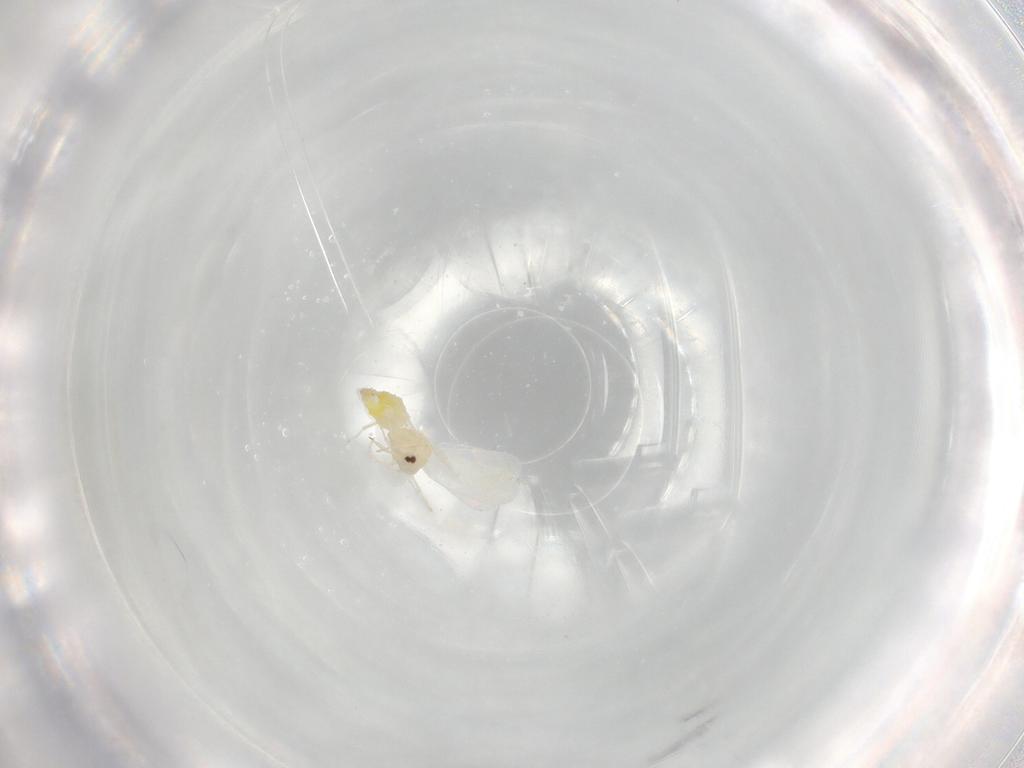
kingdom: Animalia
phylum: Arthropoda
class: Insecta
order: Hemiptera
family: Aleyrodidae
